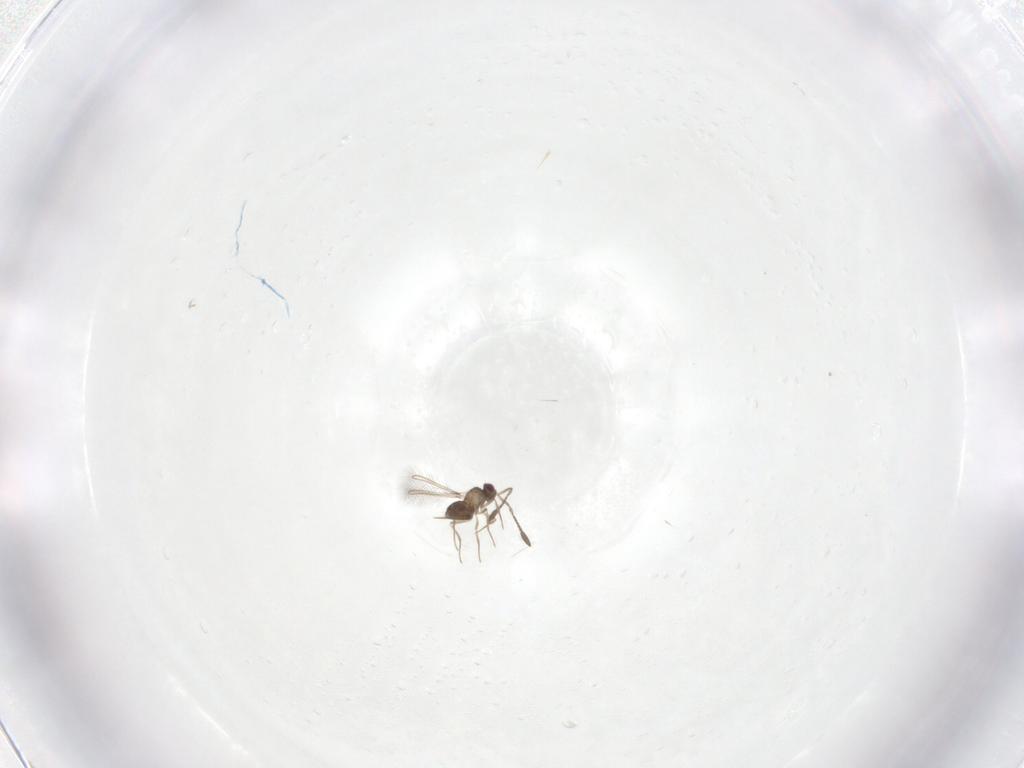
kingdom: Animalia
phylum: Arthropoda
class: Insecta
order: Hymenoptera
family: Mymaridae
